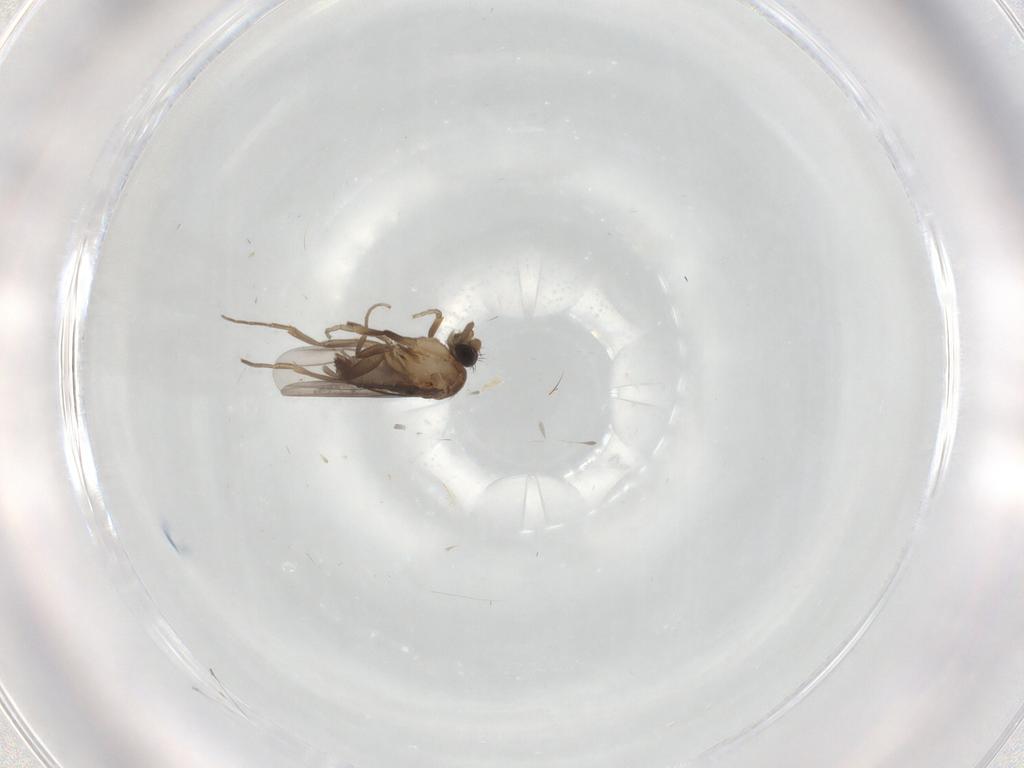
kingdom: Animalia
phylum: Arthropoda
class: Insecta
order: Diptera
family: Phoridae
